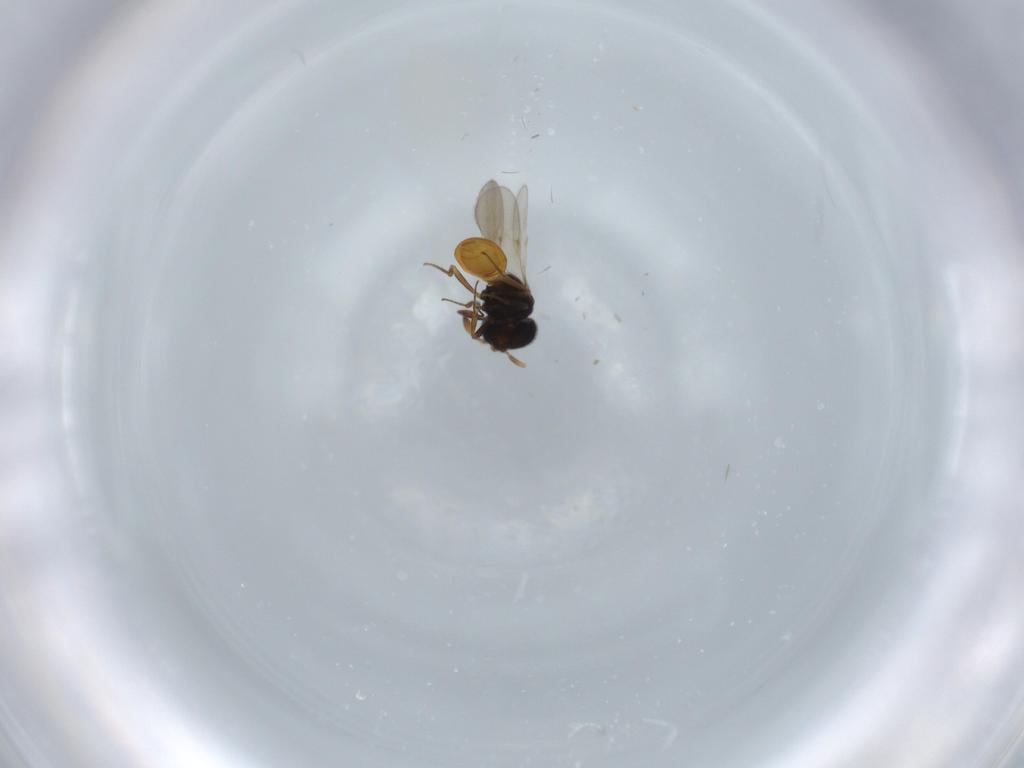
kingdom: Animalia
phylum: Arthropoda
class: Insecta
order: Hymenoptera
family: Scelionidae
